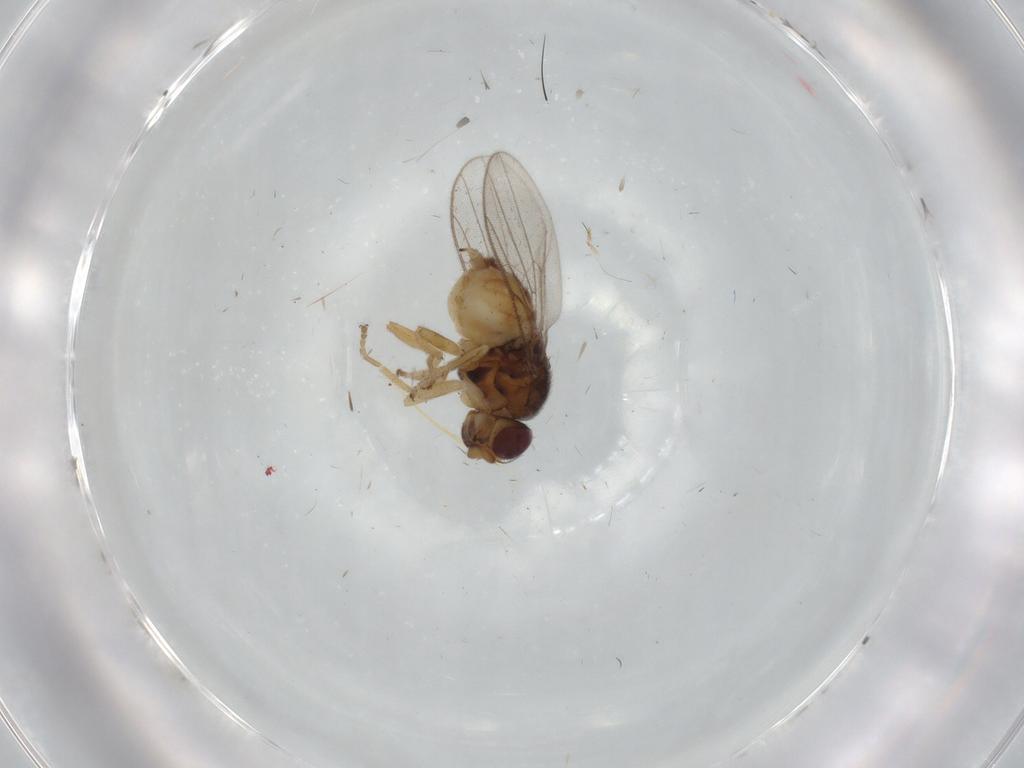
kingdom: Animalia
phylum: Arthropoda
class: Insecta
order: Diptera
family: Chloropidae
